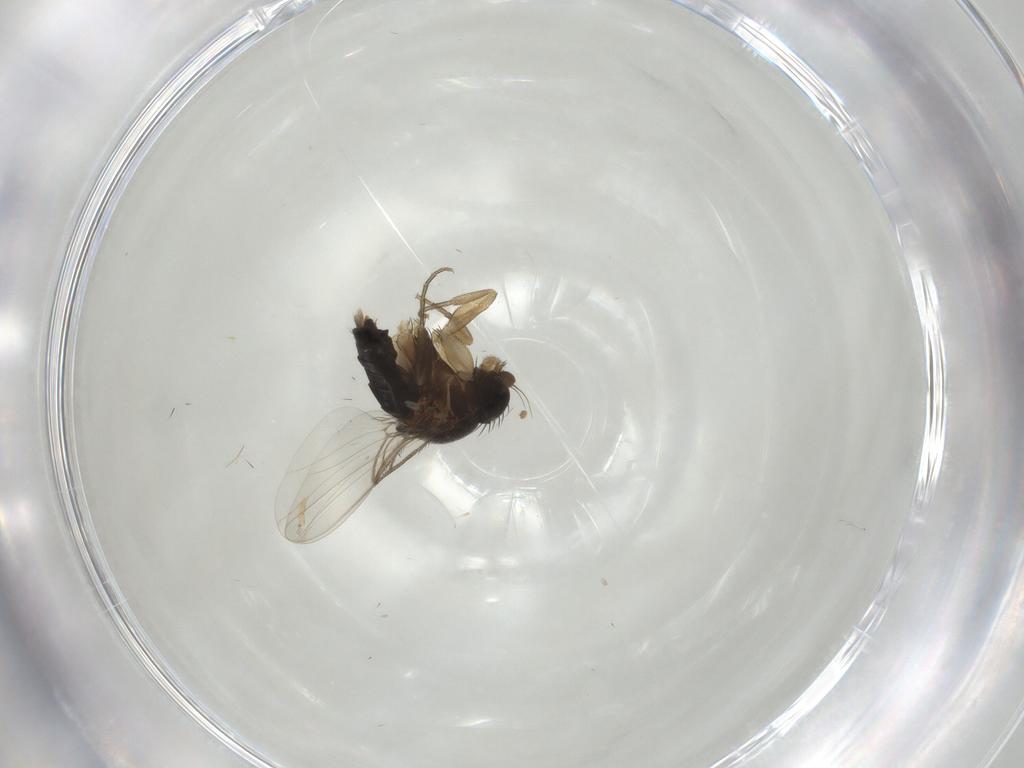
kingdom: Animalia
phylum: Arthropoda
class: Insecta
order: Diptera
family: Phoridae
